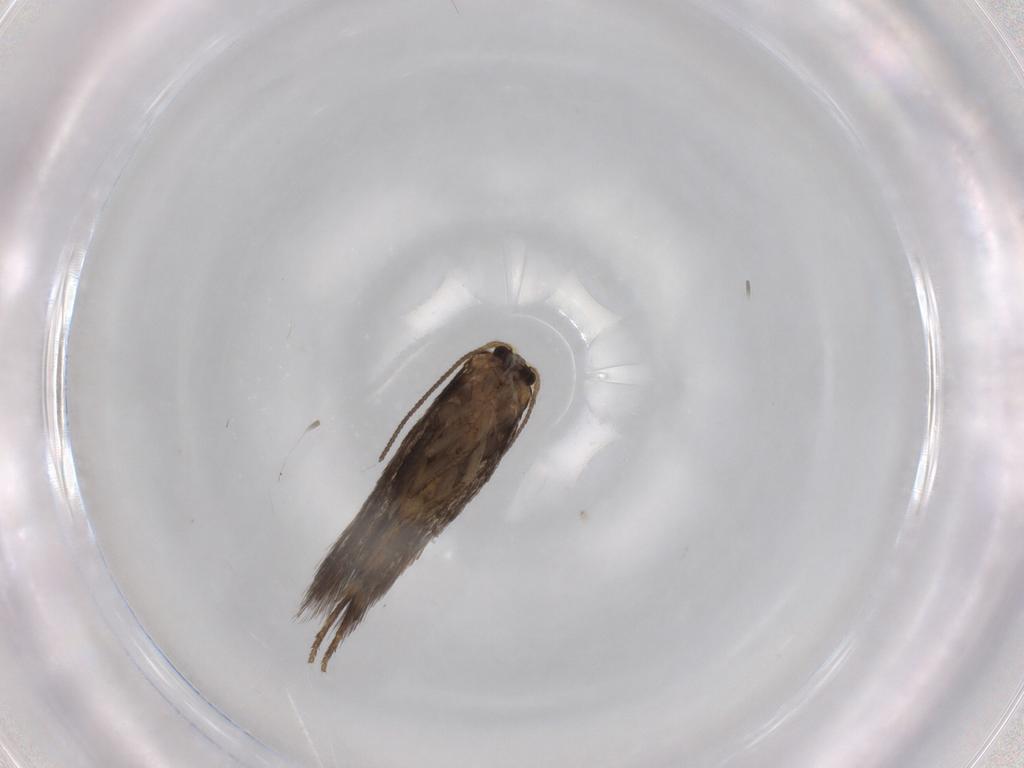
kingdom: Animalia
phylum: Arthropoda
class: Insecta
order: Lepidoptera
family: Nepticulidae
